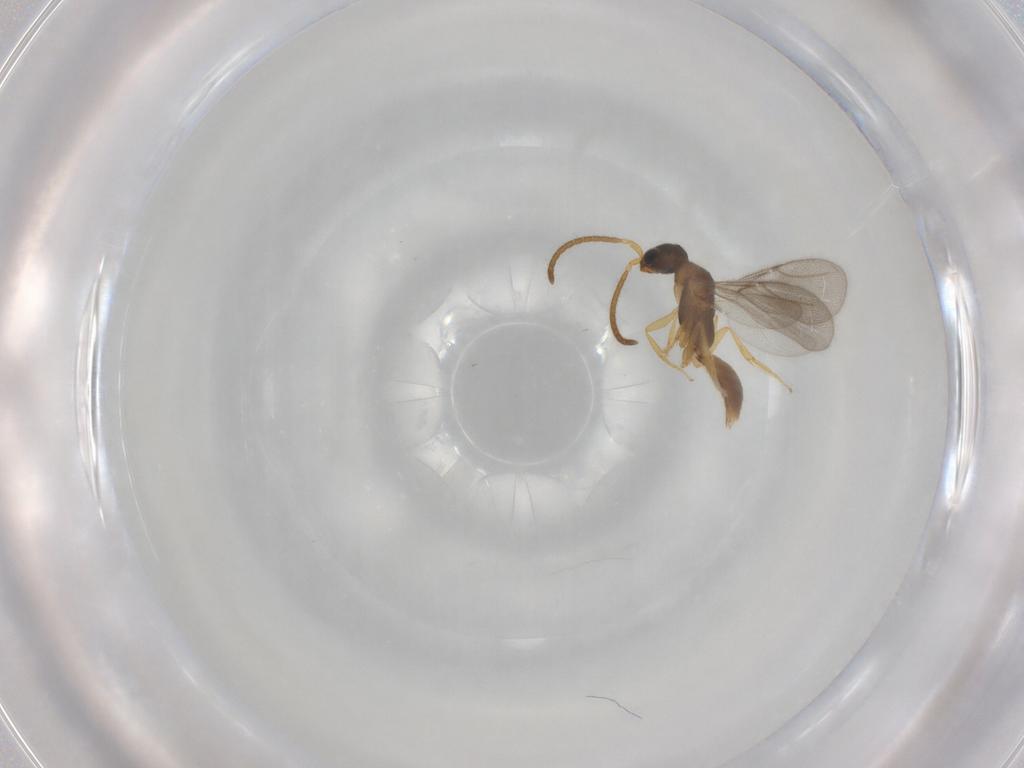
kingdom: Animalia
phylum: Arthropoda
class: Insecta
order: Hymenoptera
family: Bethylidae
